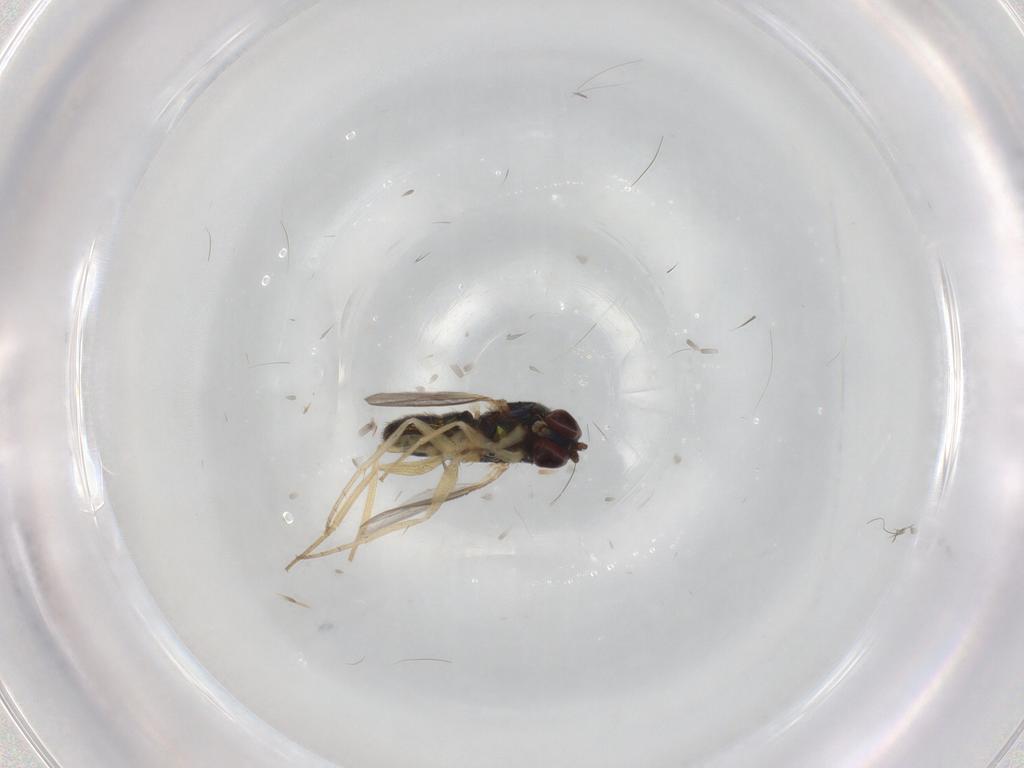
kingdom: Animalia
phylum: Arthropoda
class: Insecta
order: Diptera
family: Dolichopodidae
